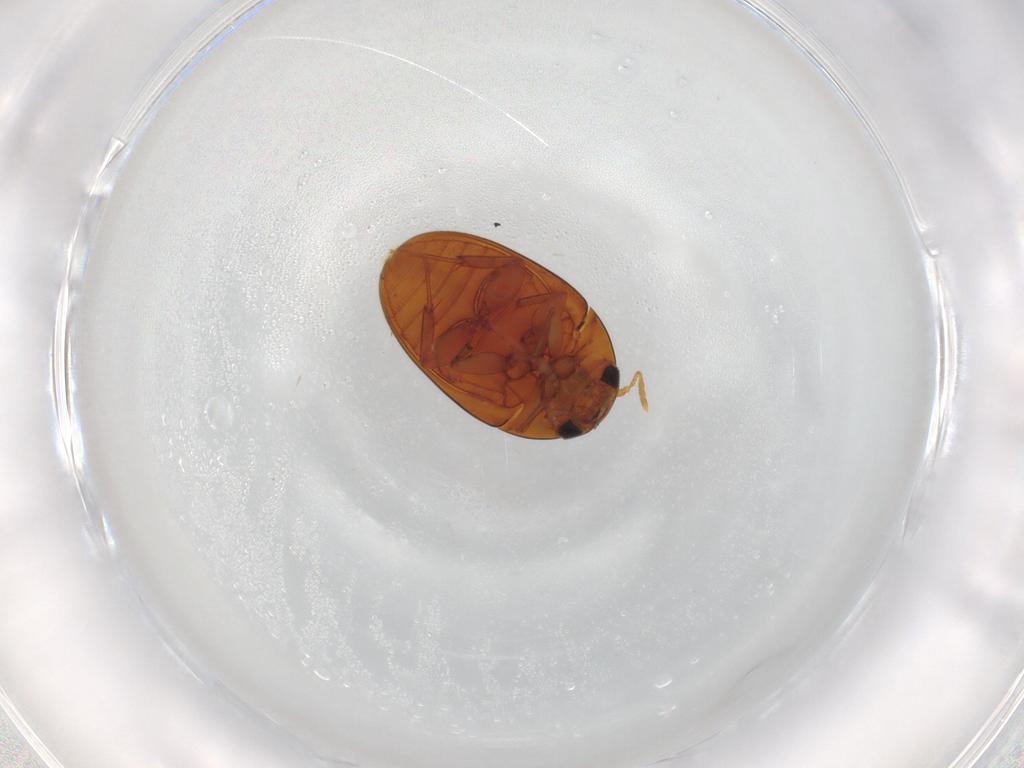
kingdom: Animalia
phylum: Arthropoda
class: Insecta
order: Coleoptera
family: Phalacridae
